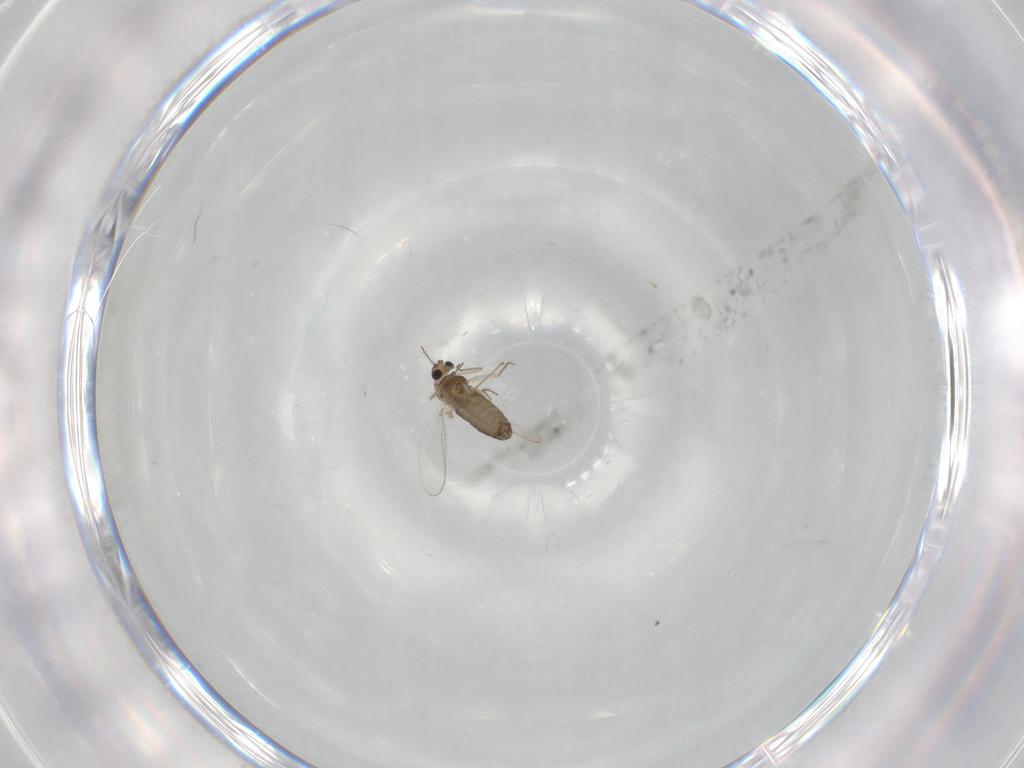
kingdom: Animalia
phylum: Arthropoda
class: Insecta
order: Diptera
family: Chironomidae
